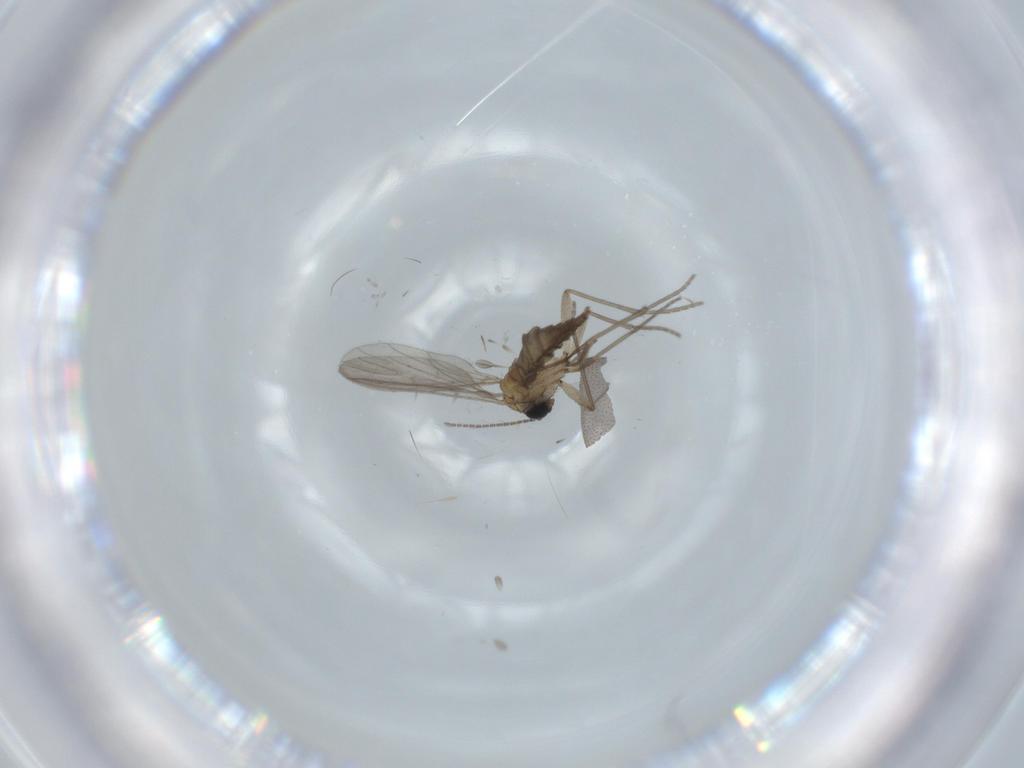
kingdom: Animalia
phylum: Arthropoda
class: Insecta
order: Diptera
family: Sciaridae
